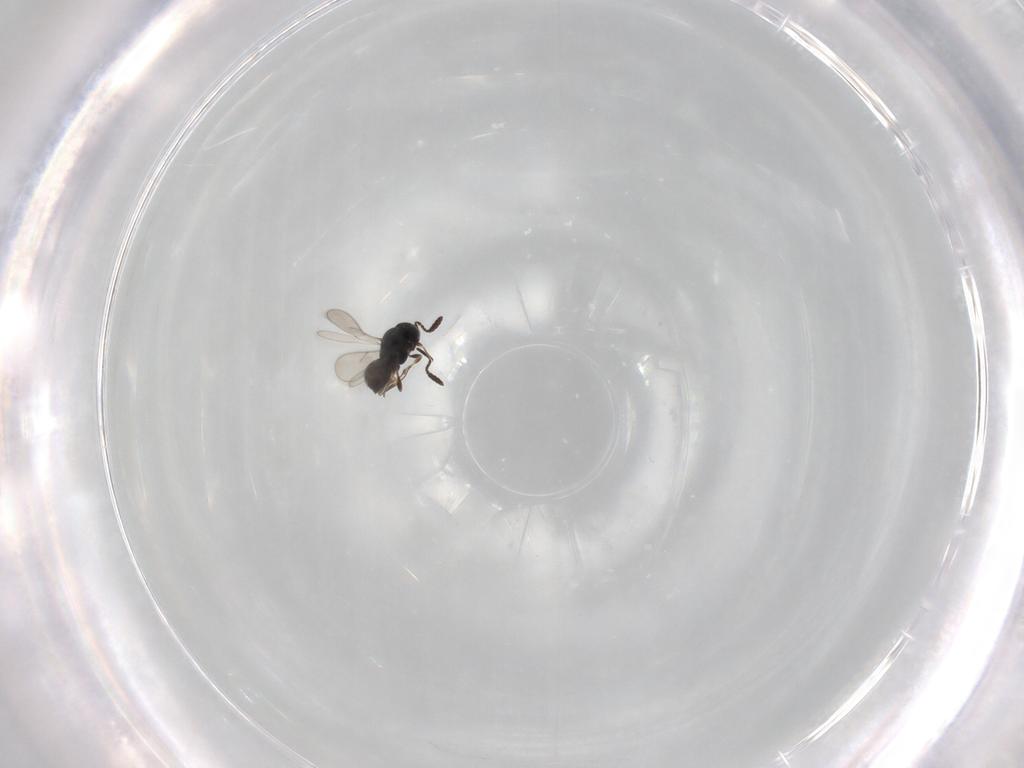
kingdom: Animalia
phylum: Arthropoda
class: Insecta
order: Hymenoptera
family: Scelionidae
